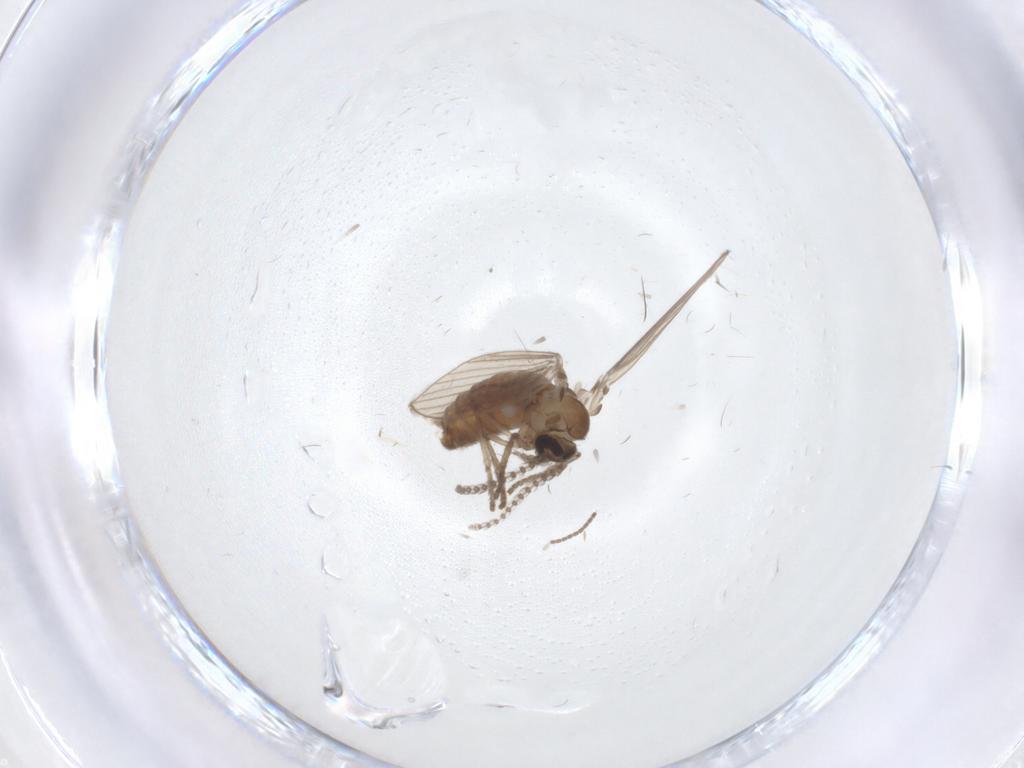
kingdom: Animalia
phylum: Arthropoda
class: Insecta
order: Diptera
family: Psychodidae
